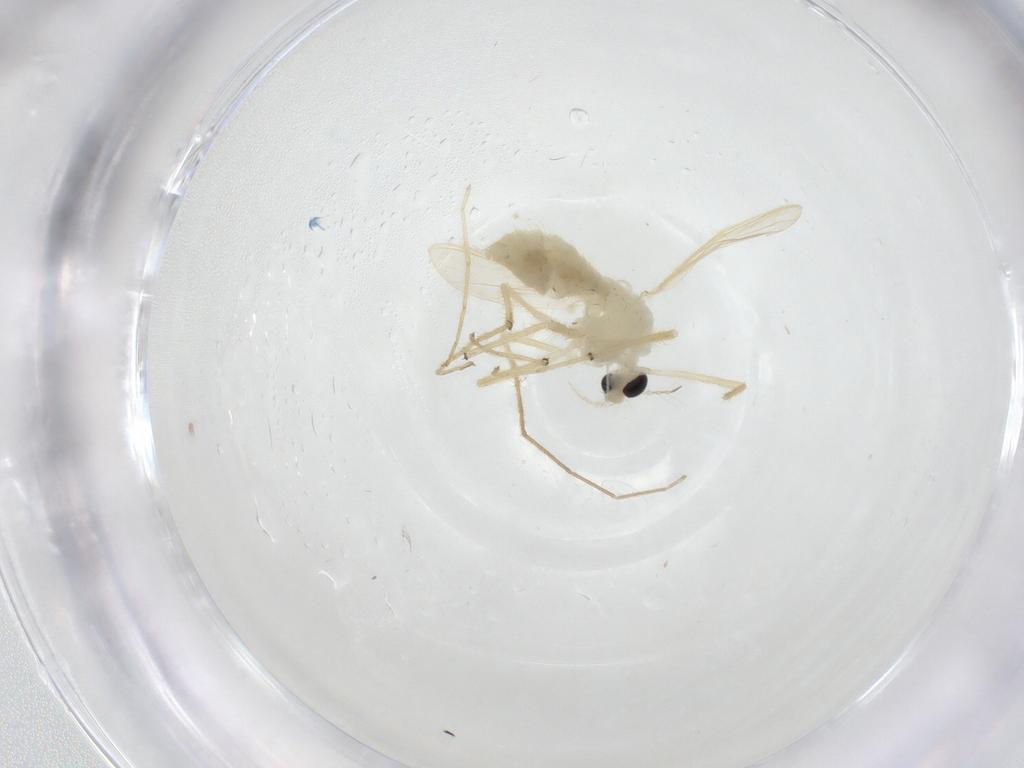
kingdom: Animalia
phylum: Arthropoda
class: Insecta
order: Diptera
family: Chironomidae
